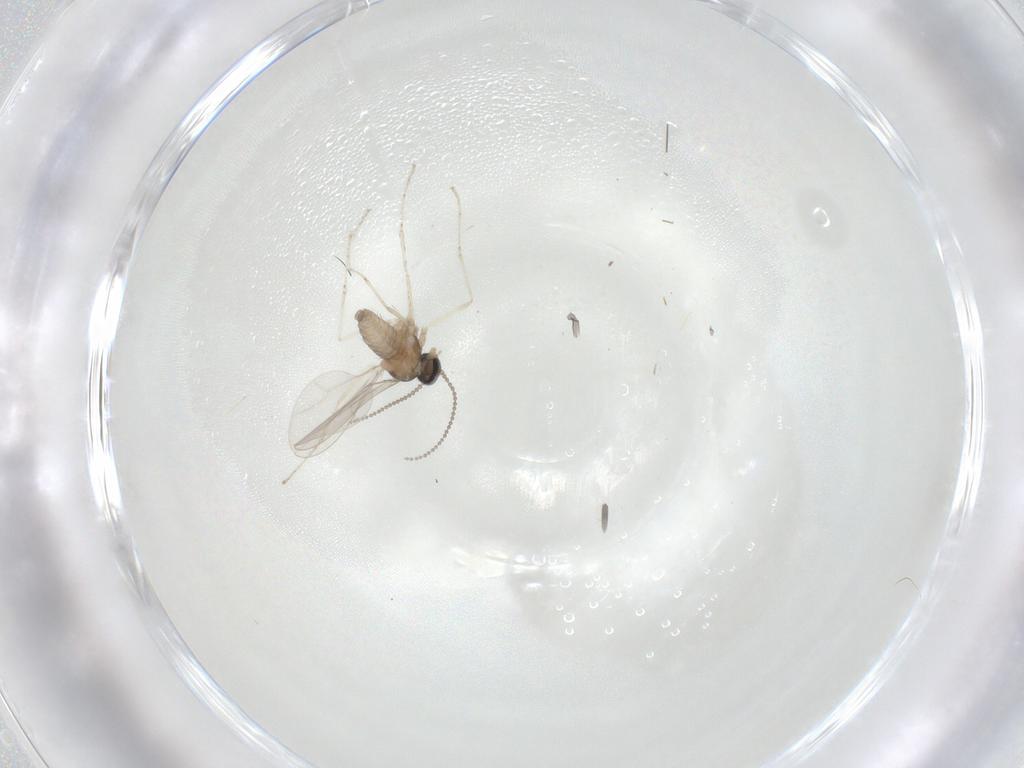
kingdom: Animalia
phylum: Arthropoda
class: Insecta
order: Diptera
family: Cecidomyiidae
